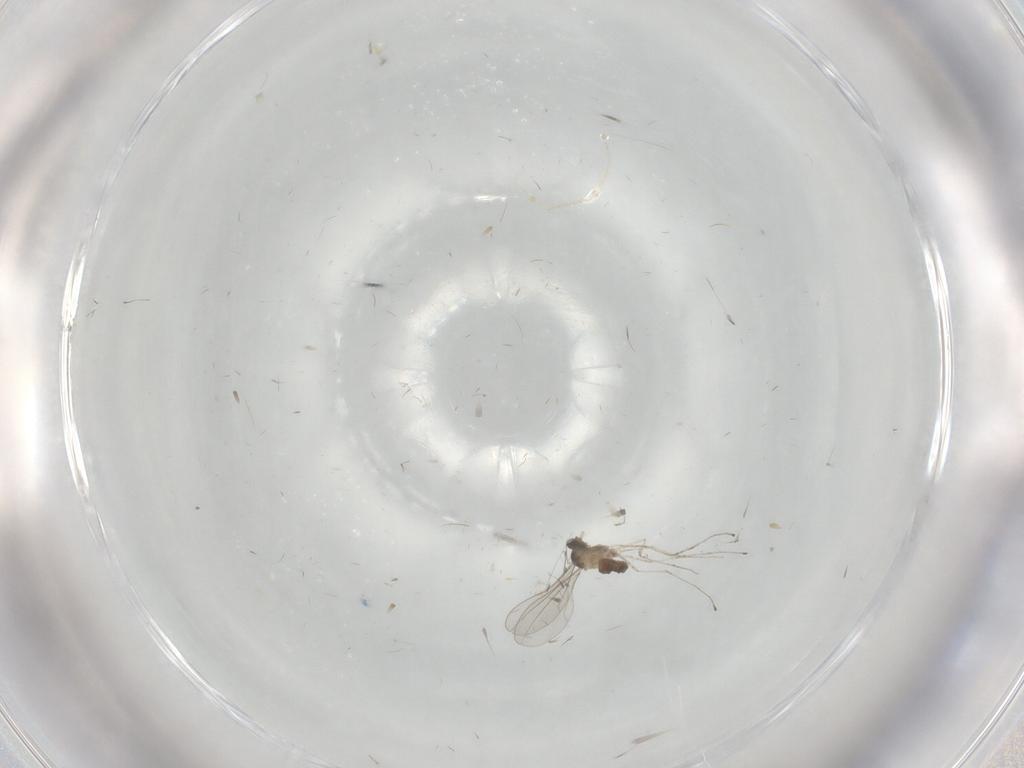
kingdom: Animalia
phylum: Arthropoda
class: Insecta
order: Diptera
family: Cecidomyiidae
